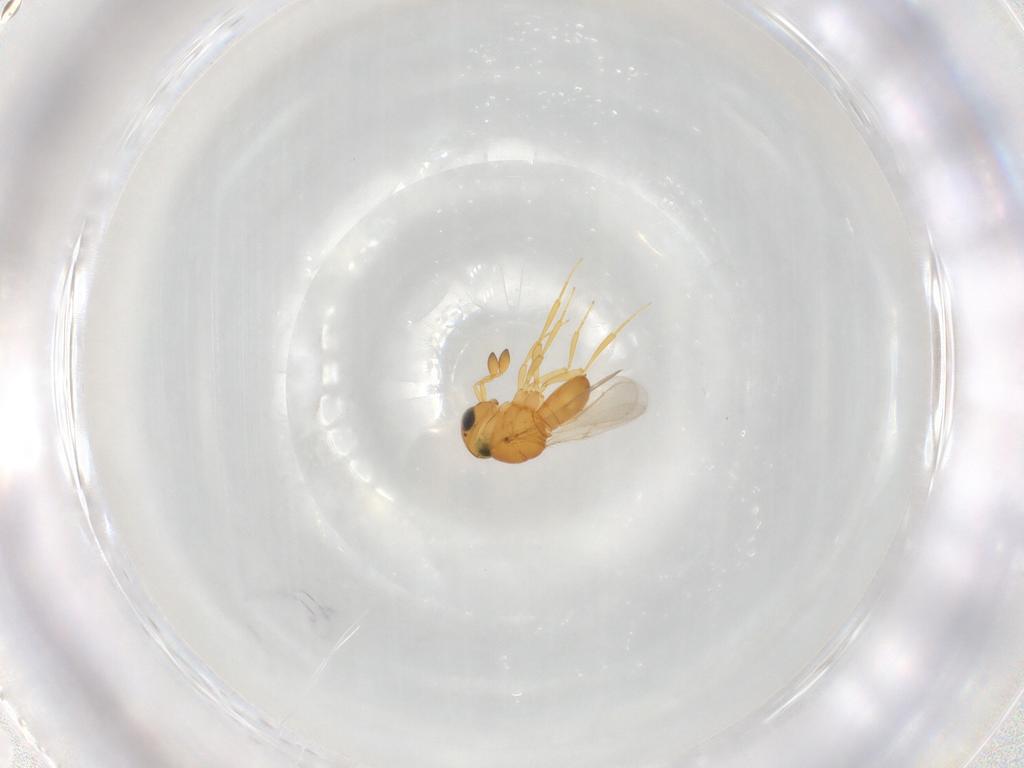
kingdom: Animalia
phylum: Arthropoda
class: Insecta
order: Hymenoptera
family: Scelionidae
